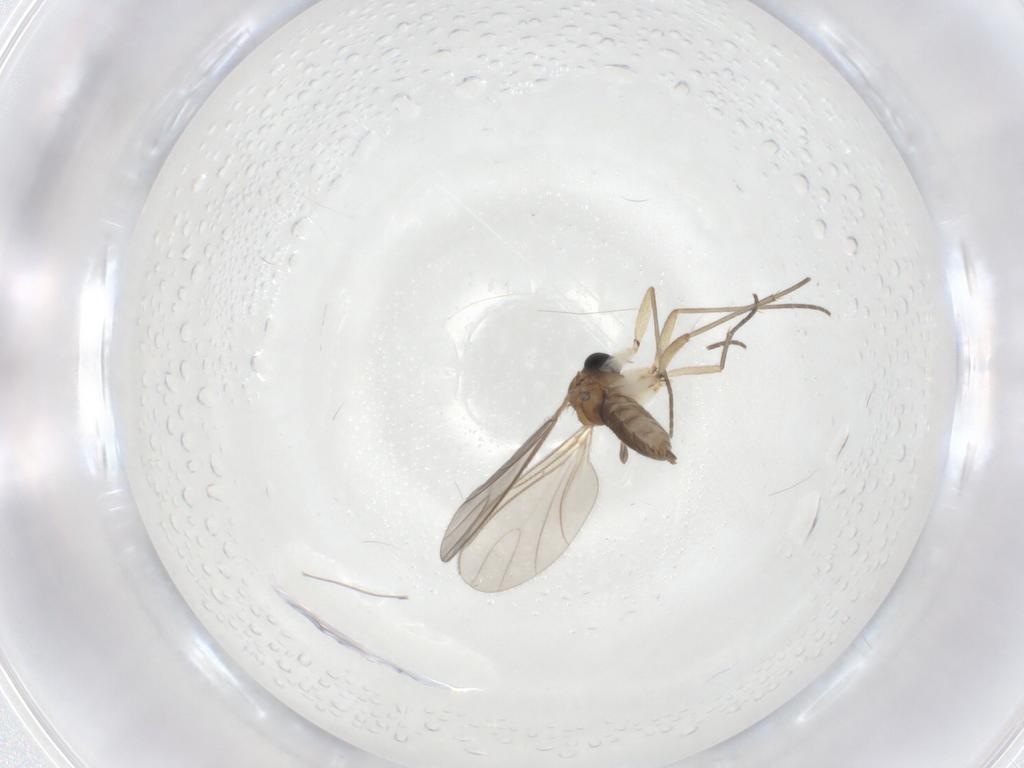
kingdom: Animalia
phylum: Arthropoda
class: Insecta
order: Diptera
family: Sciaridae
